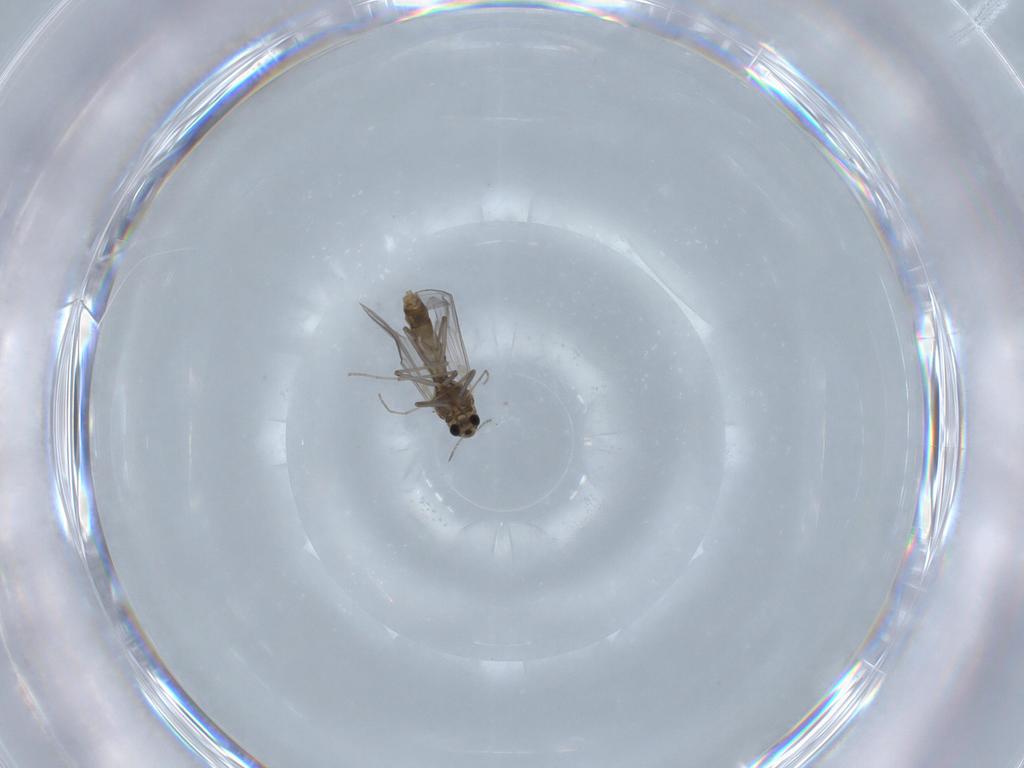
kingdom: Animalia
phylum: Arthropoda
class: Insecta
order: Diptera
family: Chironomidae
